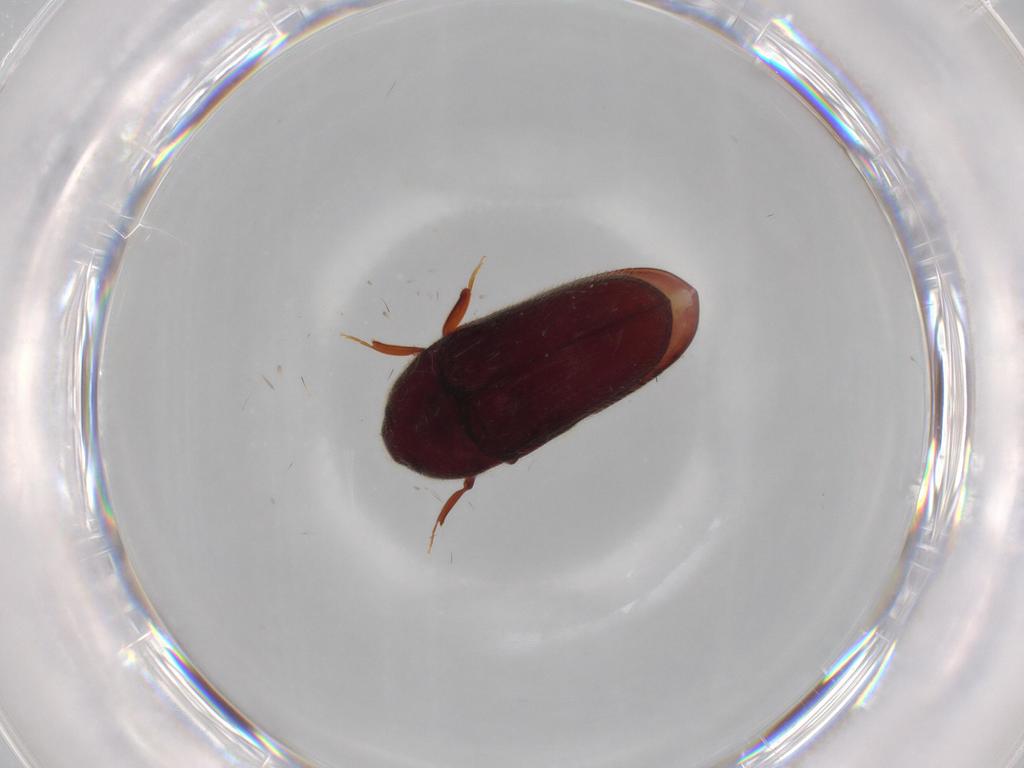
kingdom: Animalia
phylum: Arthropoda
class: Insecta
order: Coleoptera
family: Throscidae
